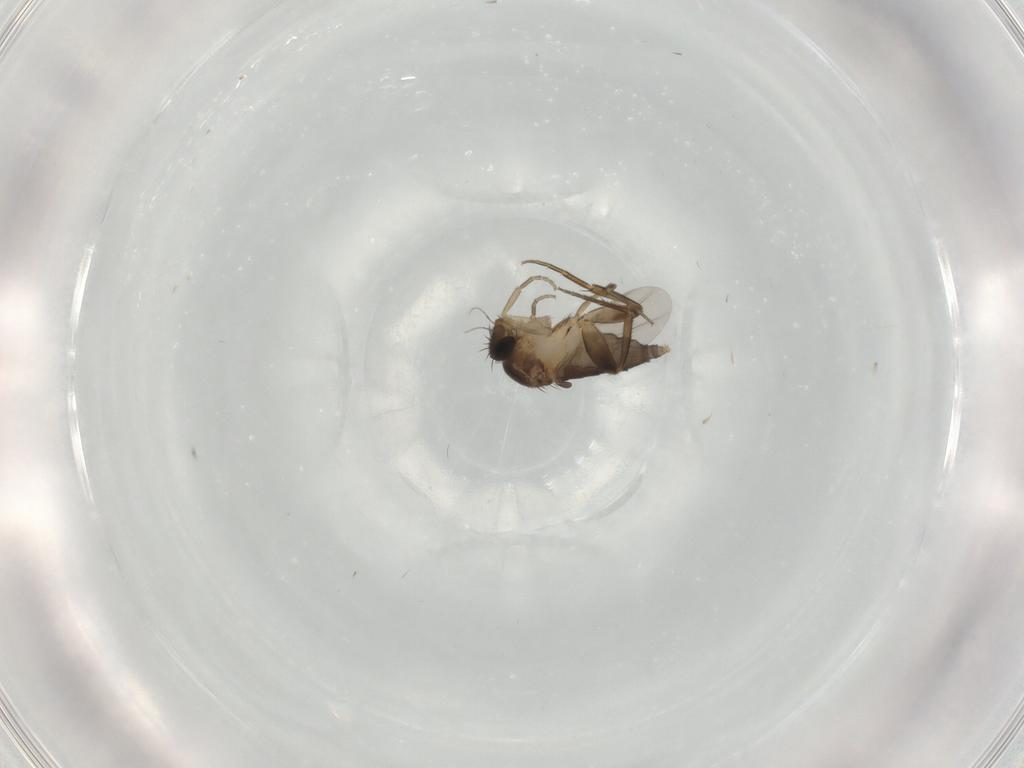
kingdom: Animalia
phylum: Arthropoda
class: Insecta
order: Diptera
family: Phoridae
